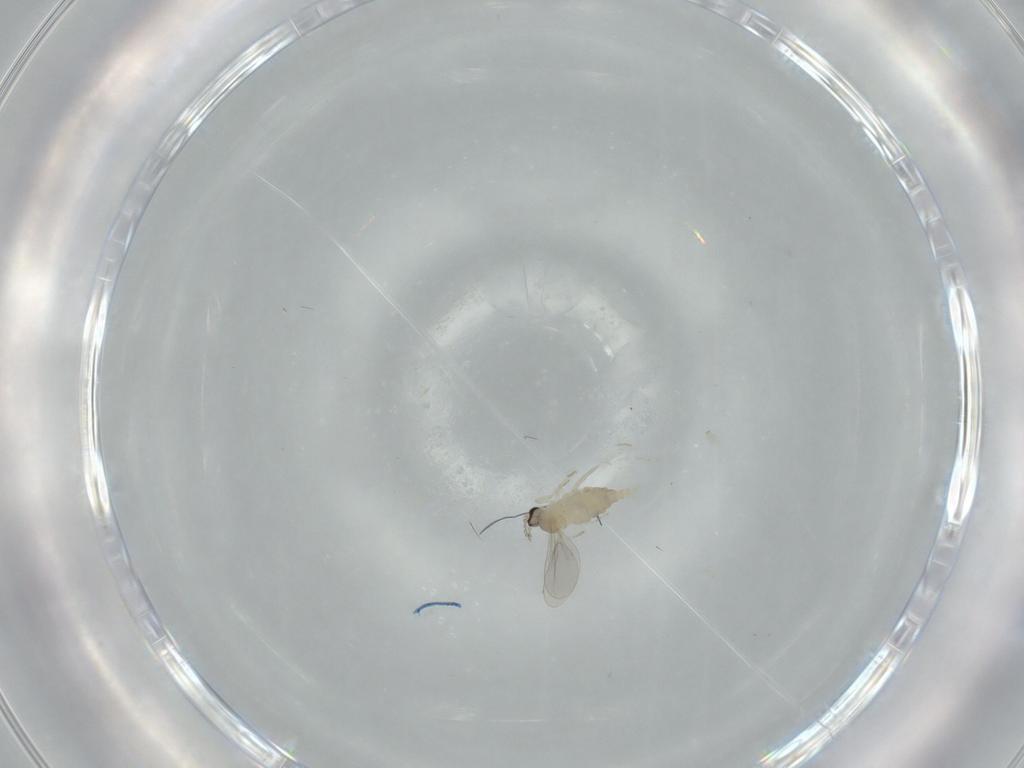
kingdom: Animalia
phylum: Arthropoda
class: Insecta
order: Diptera
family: Cecidomyiidae
